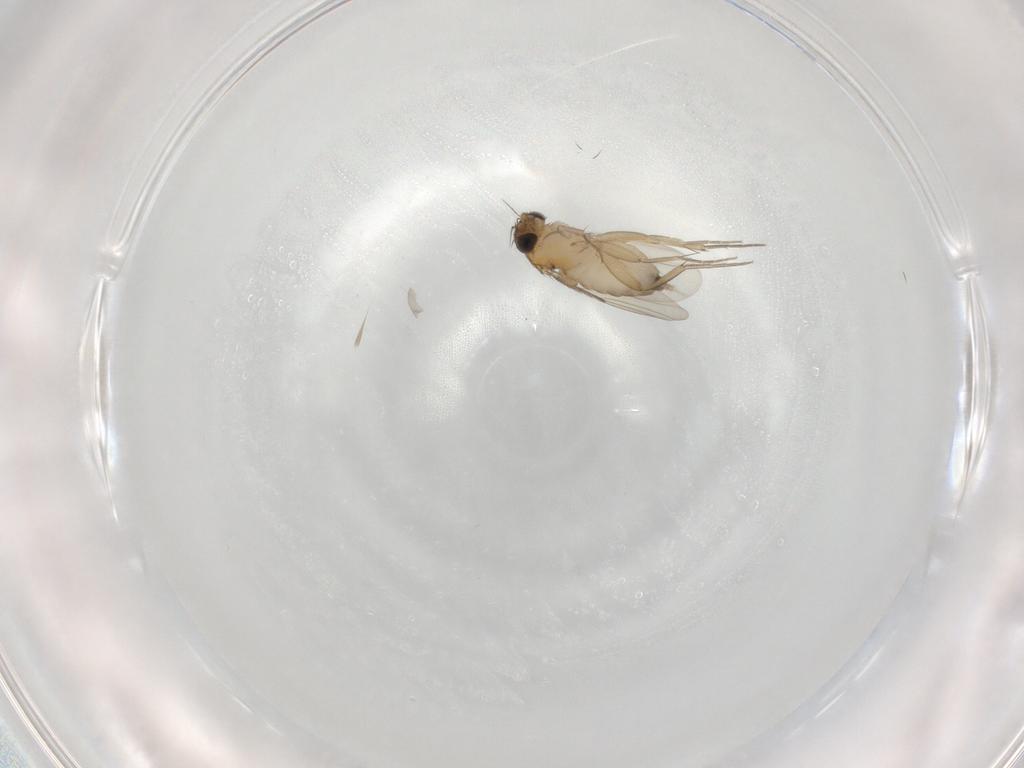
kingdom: Animalia
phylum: Arthropoda
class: Insecta
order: Diptera
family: Phoridae
